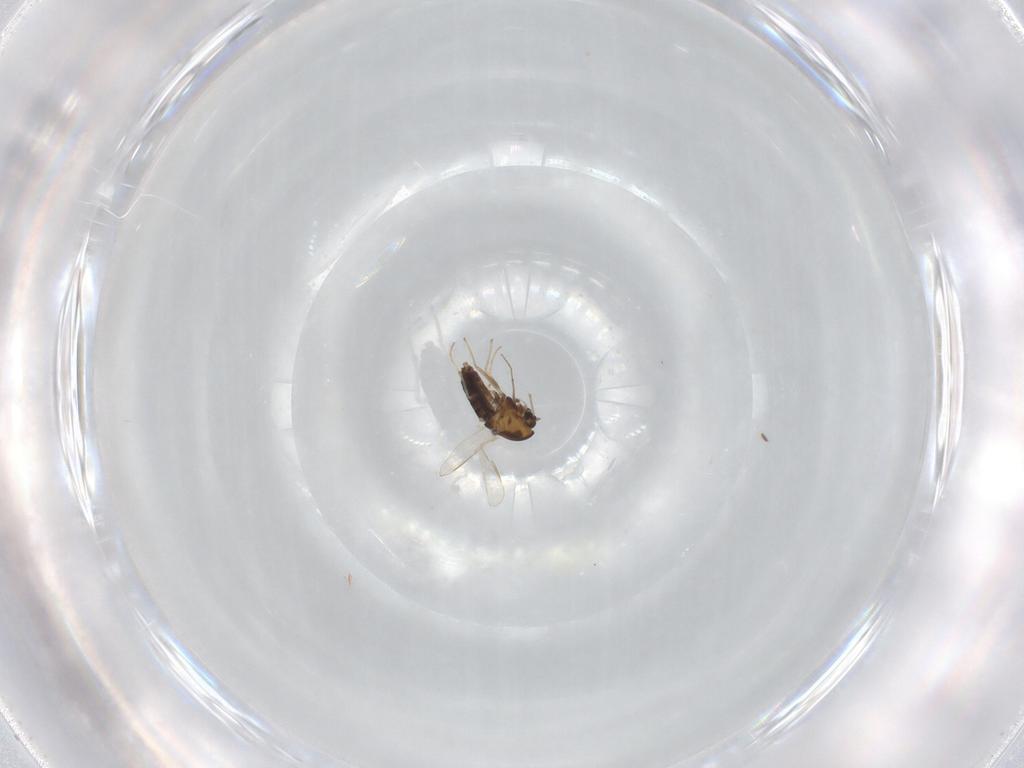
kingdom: Animalia
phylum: Arthropoda
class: Insecta
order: Diptera
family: Chironomidae
